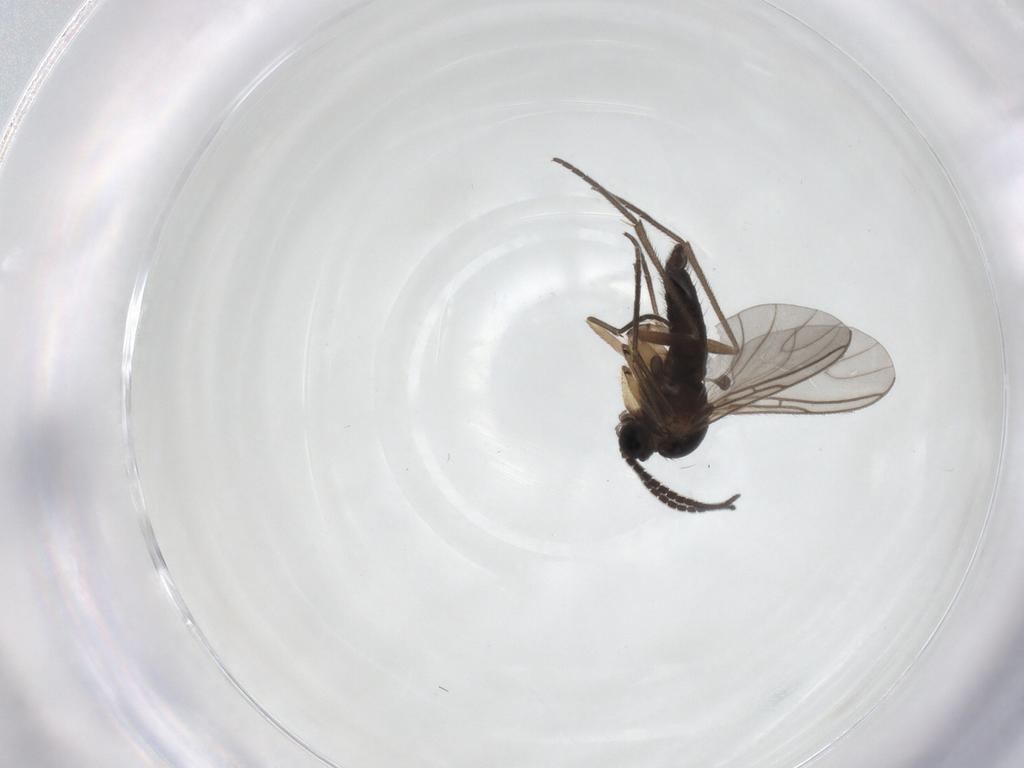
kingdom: Animalia
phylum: Arthropoda
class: Insecta
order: Diptera
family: Sciaridae
